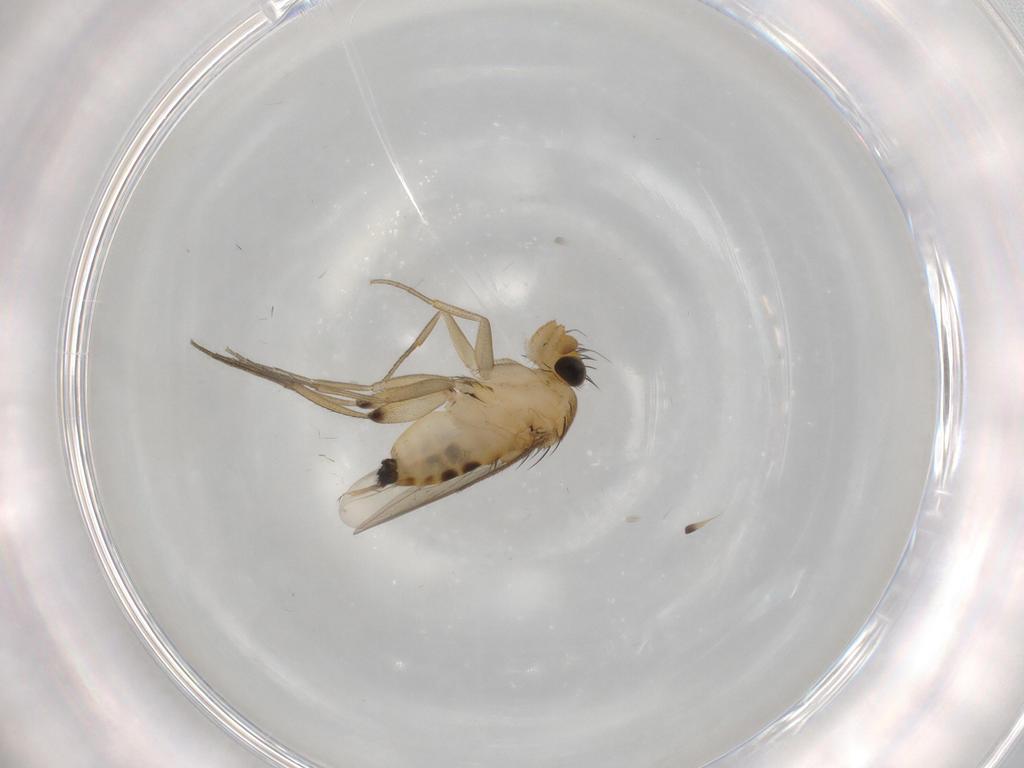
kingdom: Animalia
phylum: Arthropoda
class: Insecta
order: Diptera
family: Phoridae
